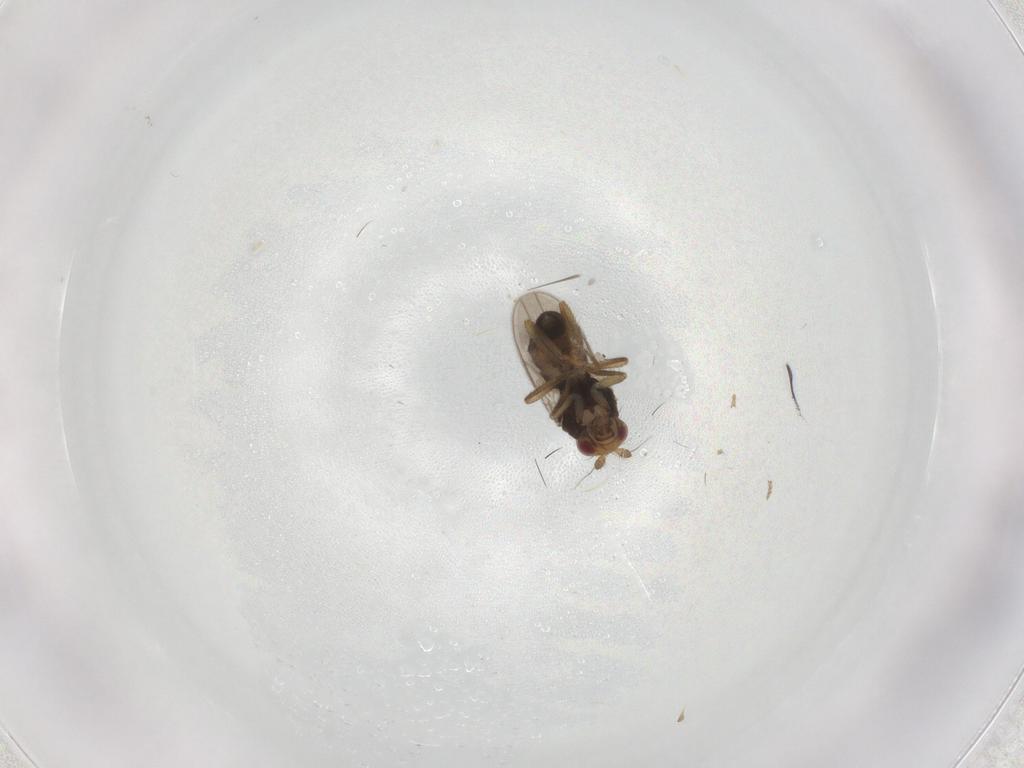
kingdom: Animalia
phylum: Arthropoda
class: Insecta
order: Diptera
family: Sphaeroceridae
